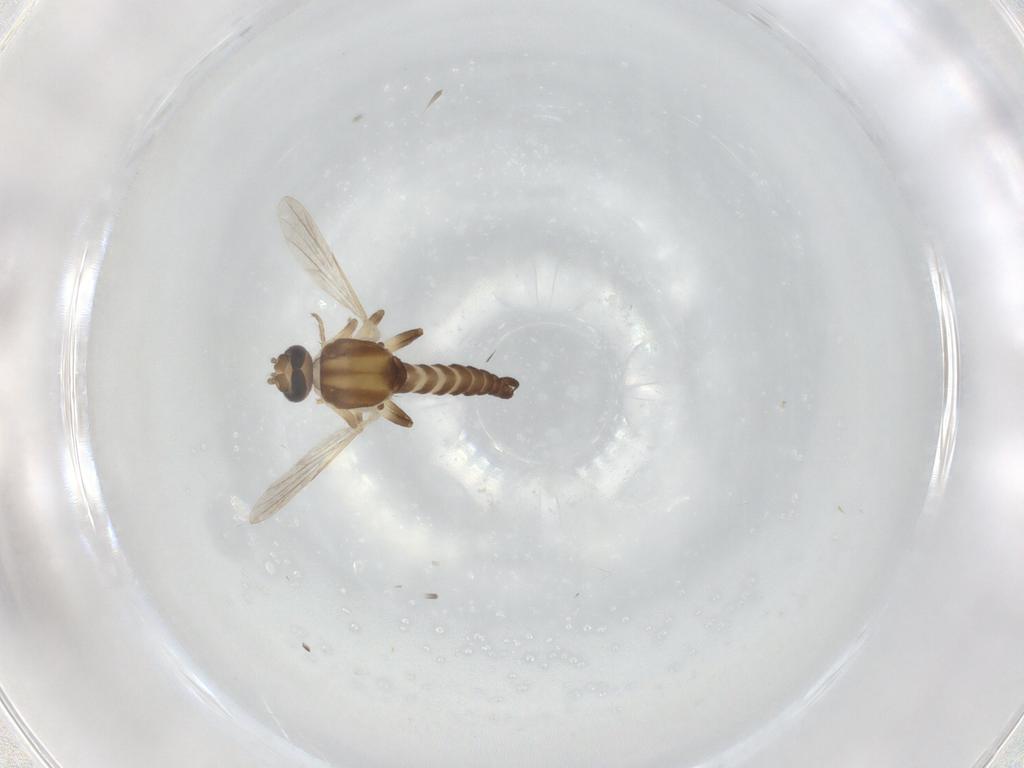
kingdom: Animalia
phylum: Arthropoda
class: Insecta
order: Diptera
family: Ceratopogonidae
